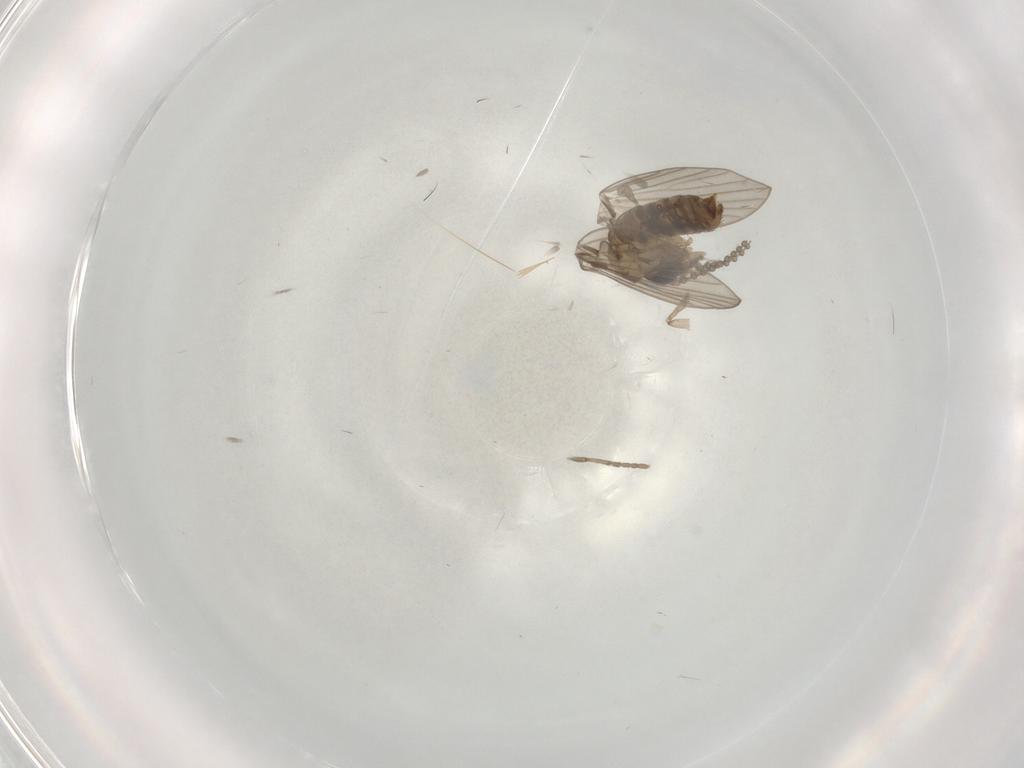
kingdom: Animalia
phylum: Arthropoda
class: Insecta
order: Diptera
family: Psychodidae
